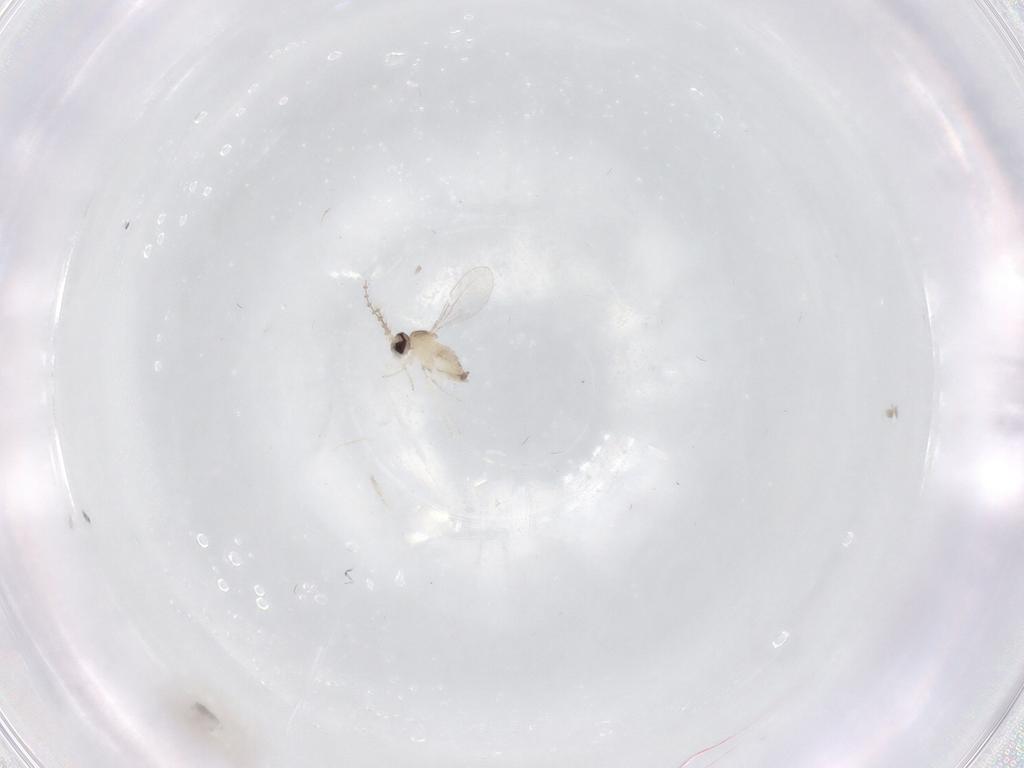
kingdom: Animalia
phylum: Arthropoda
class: Insecta
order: Diptera
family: Cecidomyiidae
